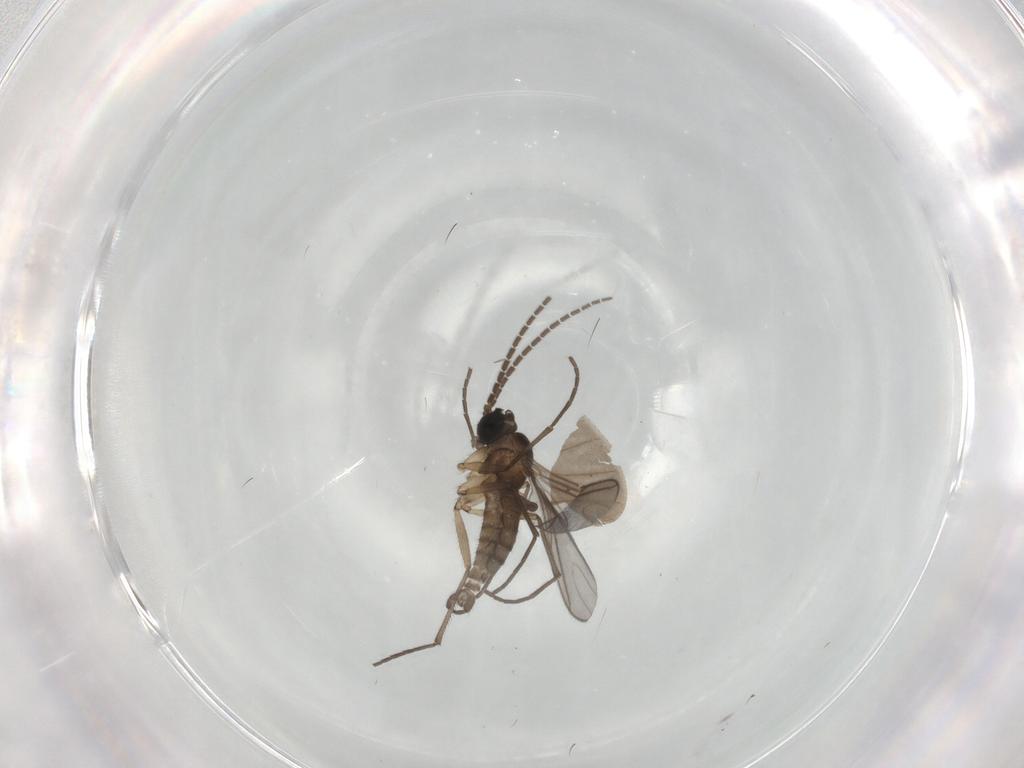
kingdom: Animalia
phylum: Arthropoda
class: Insecta
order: Diptera
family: Sciaridae
